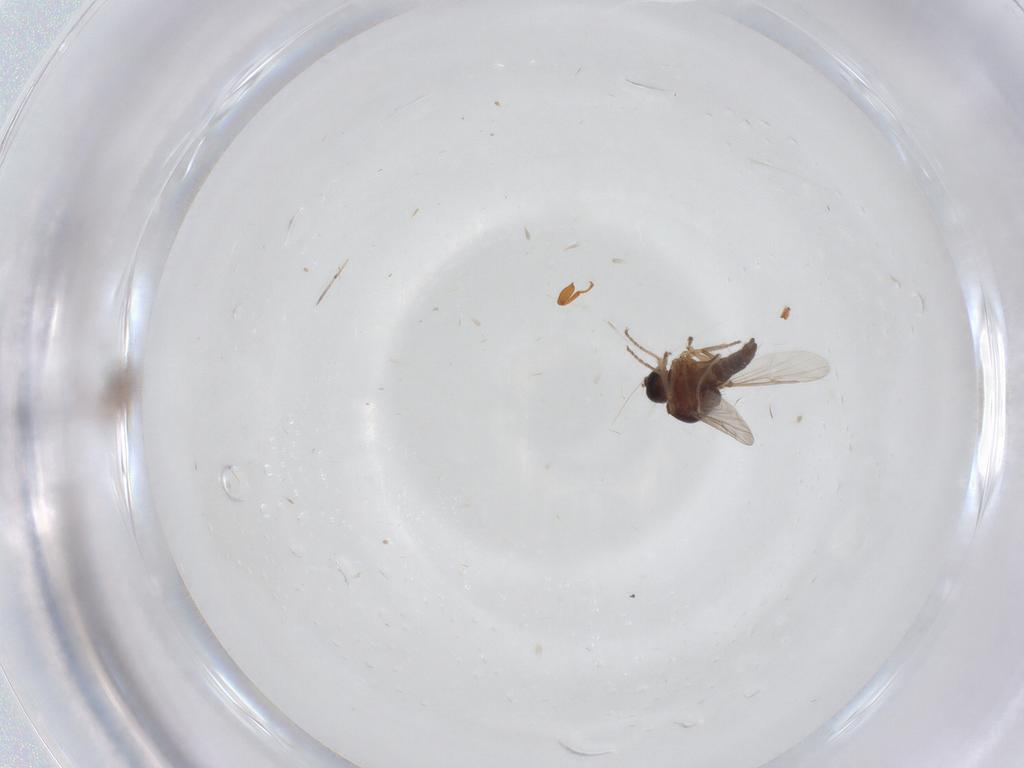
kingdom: Animalia
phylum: Arthropoda
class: Insecta
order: Diptera
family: Ceratopogonidae
